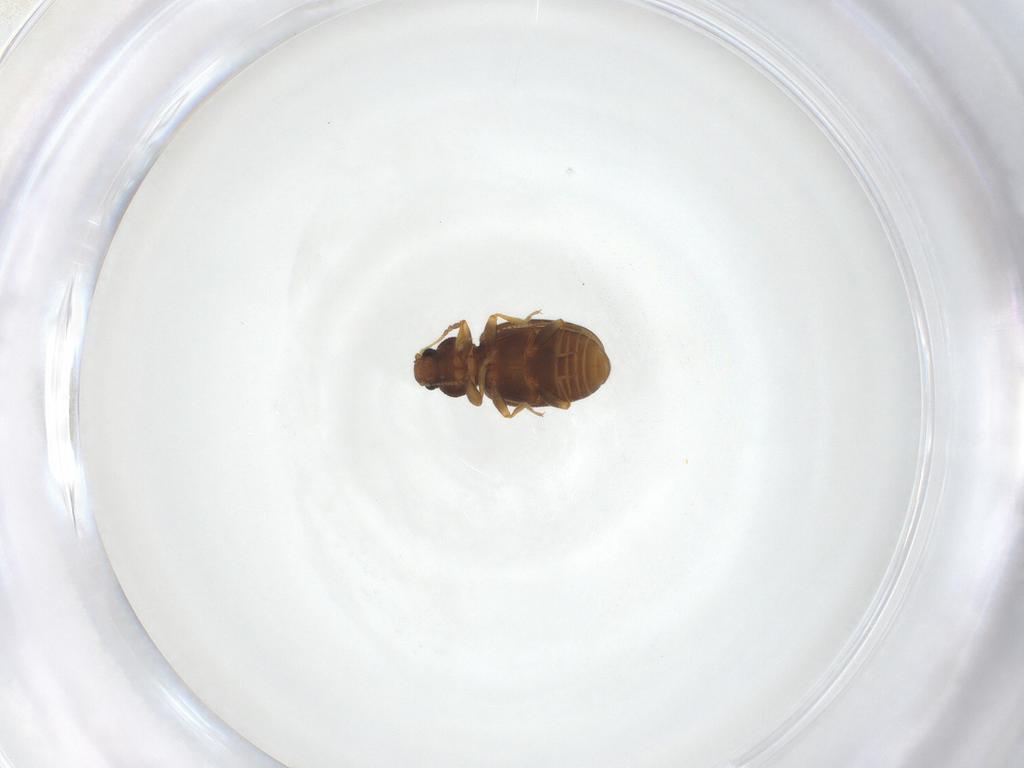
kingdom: Animalia
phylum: Arthropoda
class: Insecta
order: Coleoptera
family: Latridiidae
